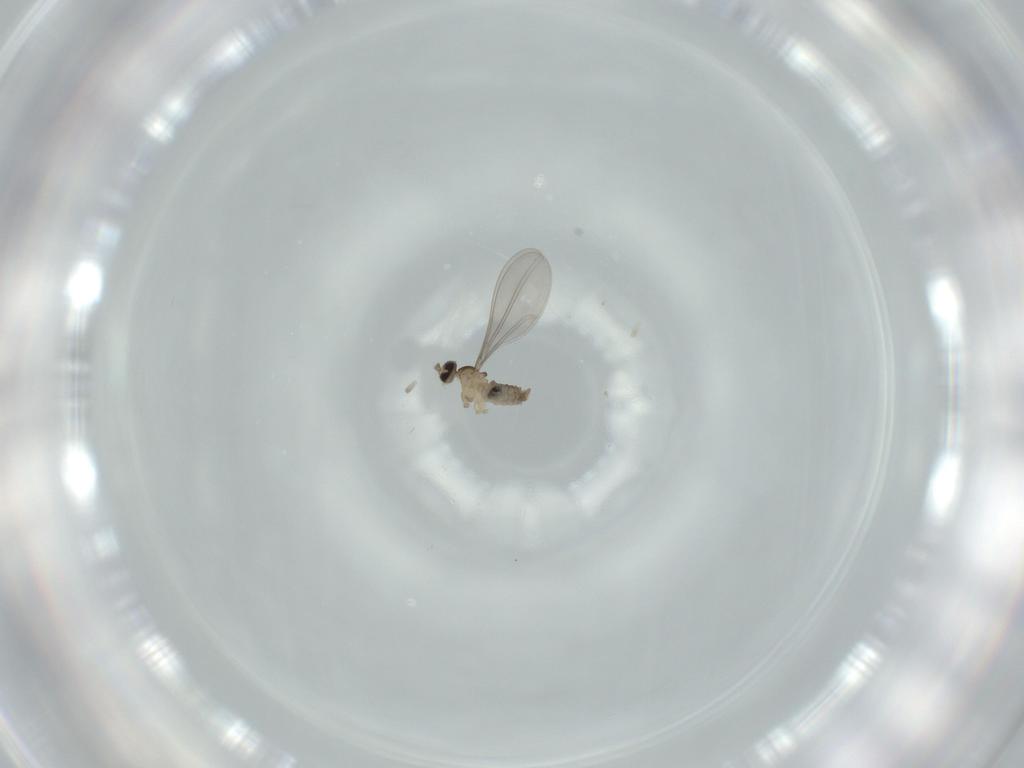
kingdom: Animalia
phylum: Arthropoda
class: Insecta
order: Diptera
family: Cecidomyiidae
